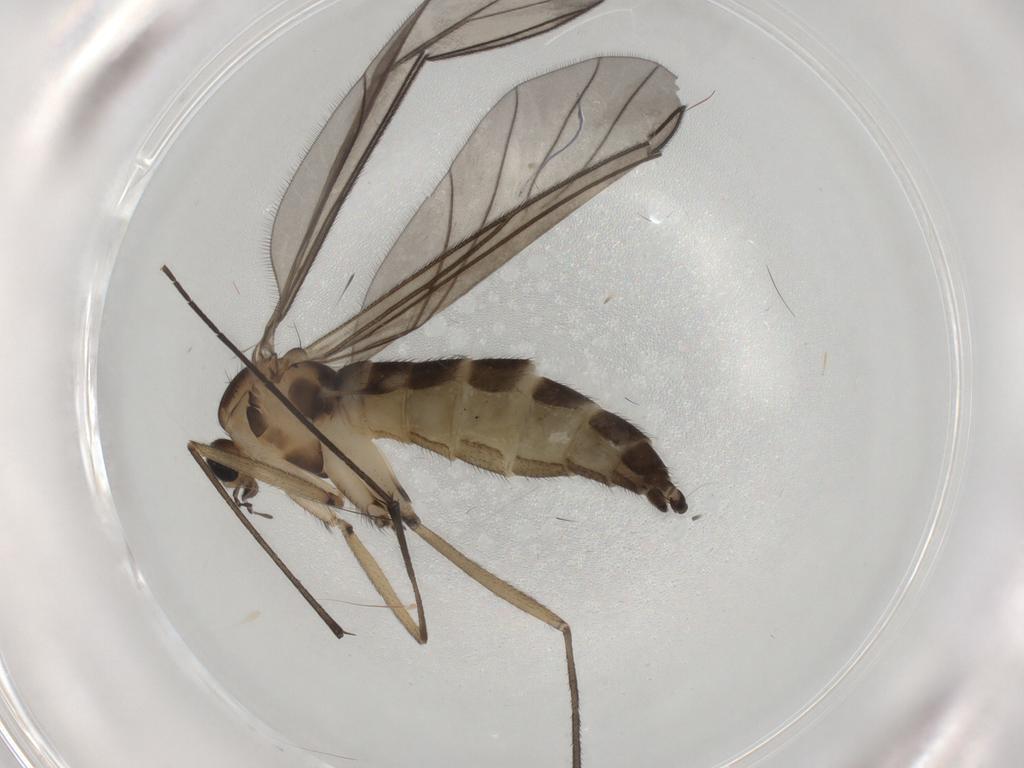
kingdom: Animalia
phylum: Arthropoda
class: Insecta
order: Diptera
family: Sciaridae
